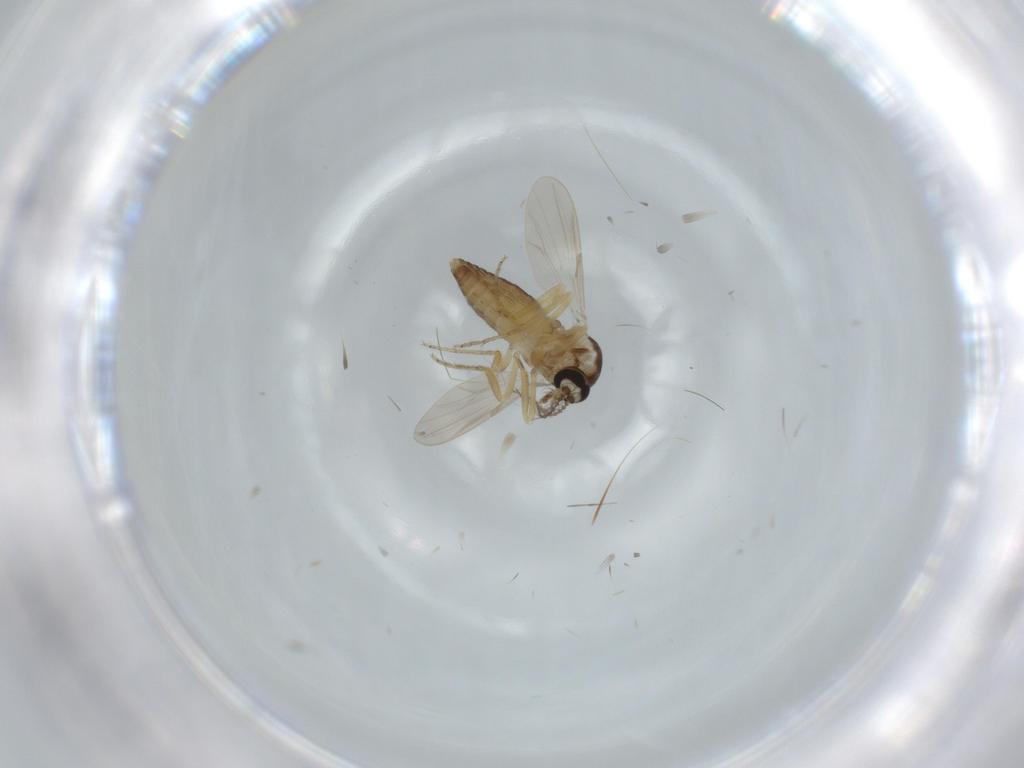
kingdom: Animalia
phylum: Arthropoda
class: Insecta
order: Diptera
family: Ceratopogonidae
